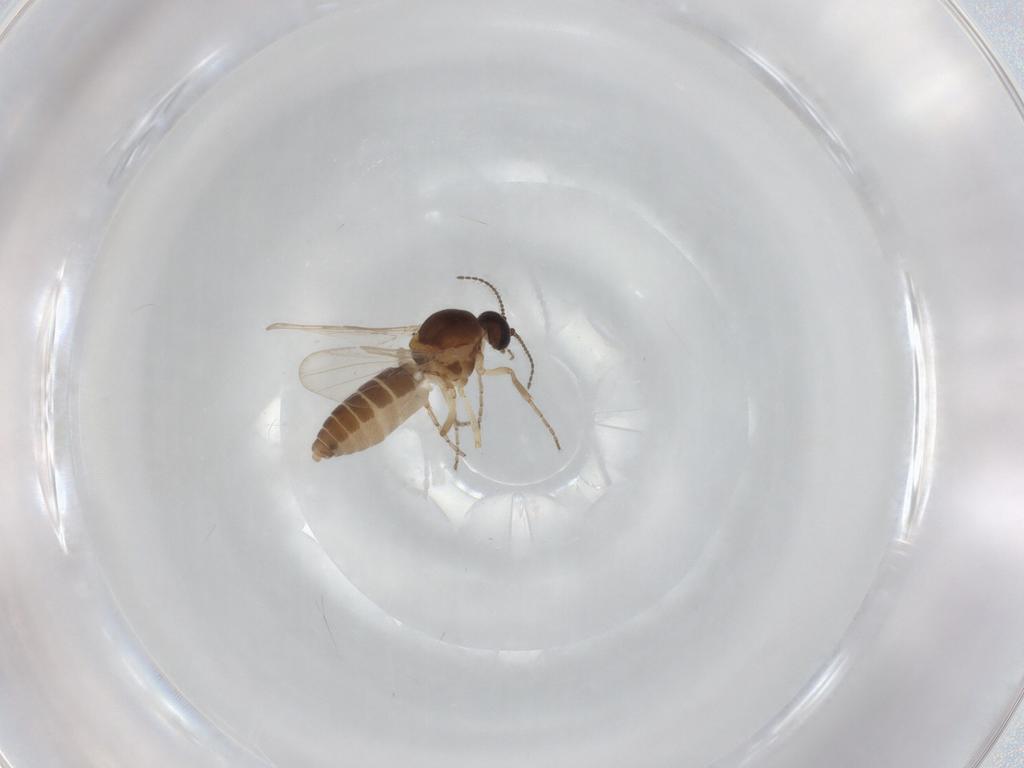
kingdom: Animalia
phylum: Arthropoda
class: Insecta
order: Diptera
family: Ceratopogonidae
